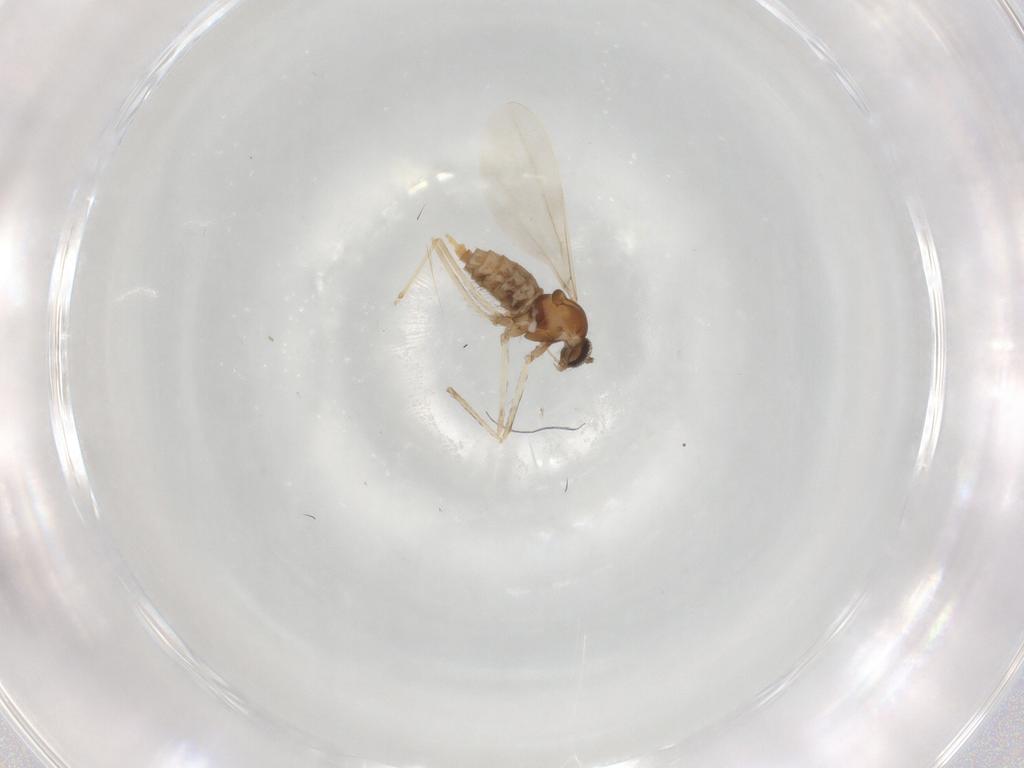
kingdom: Animalia
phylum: Arthropoda
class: Insecta
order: Diptera
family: Cecidomyiidae
